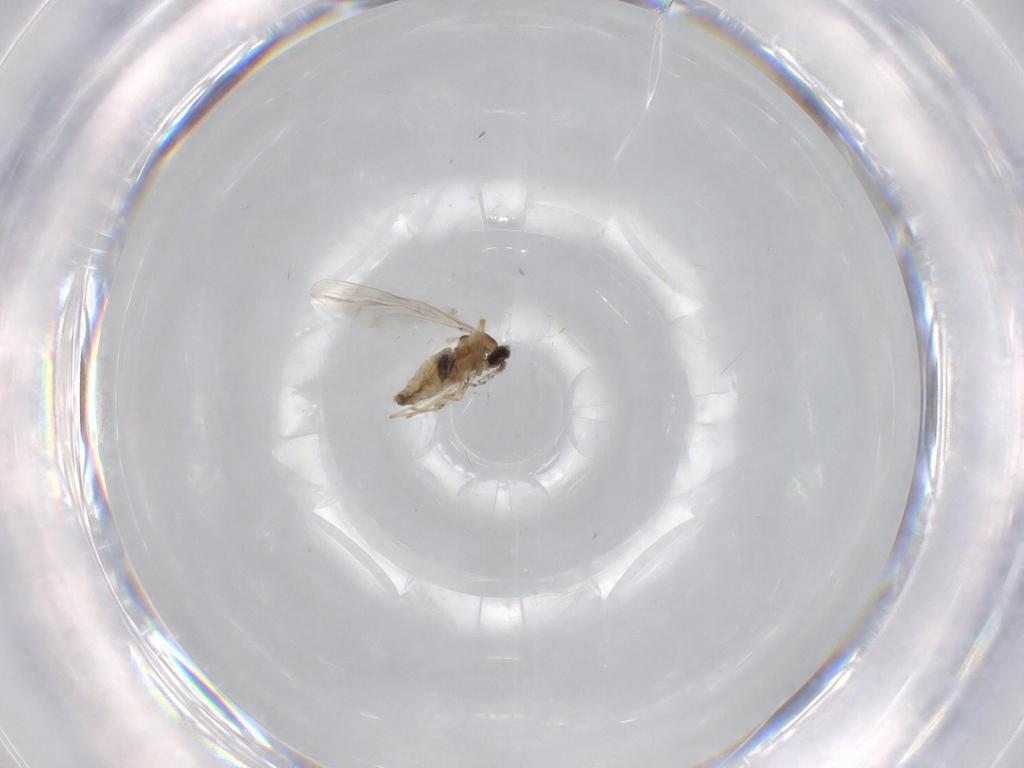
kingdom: Animalia
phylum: Arthropoda
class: Insecta
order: Diptera
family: Cecidomyiidae
